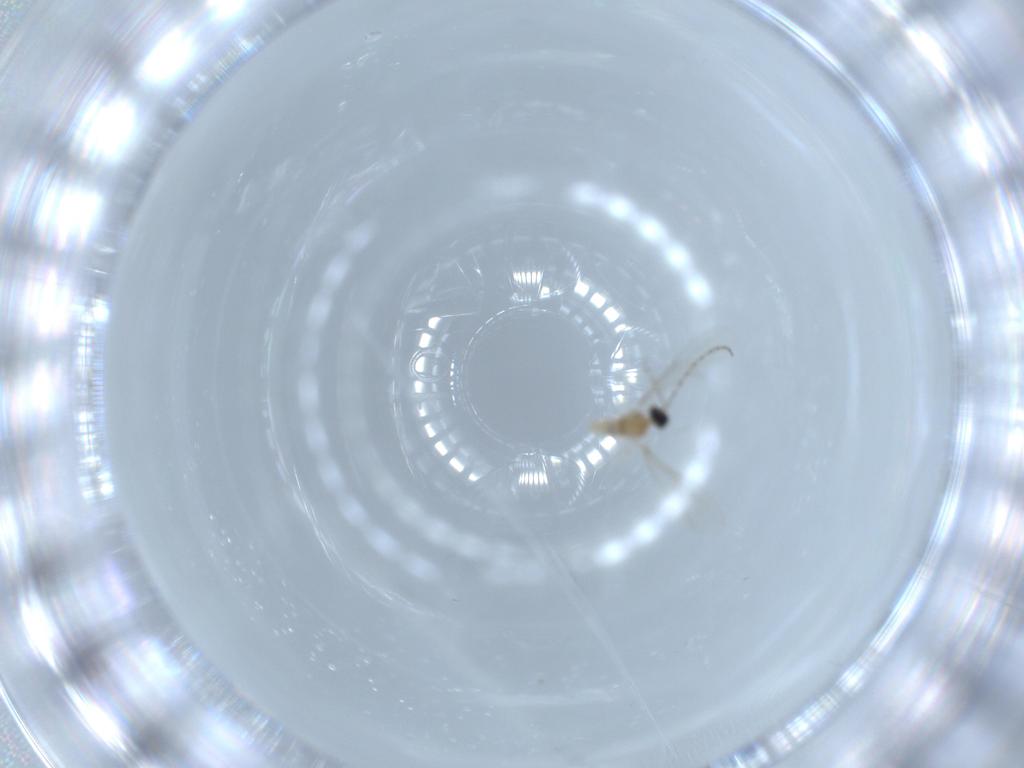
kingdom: Animalia
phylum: Arthropoda
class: Insecta
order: Diptera
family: Cecidomyiidae
